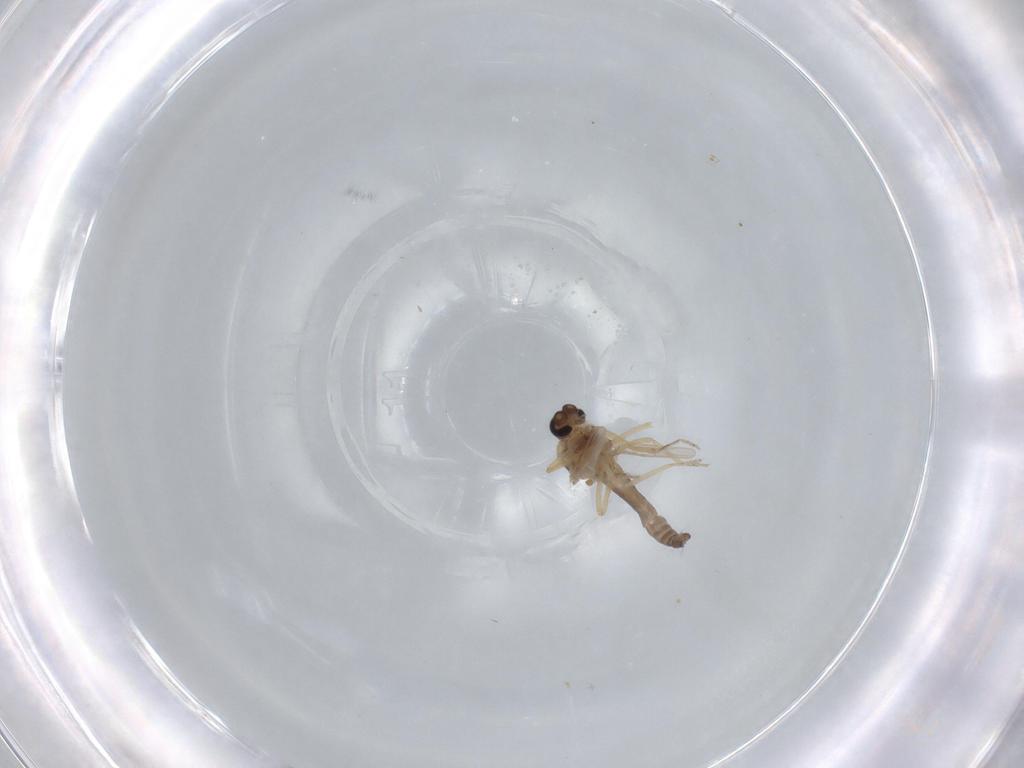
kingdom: Animalia
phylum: Arthropoda
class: Insecta
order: Diptera
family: Ceratopogonidae
